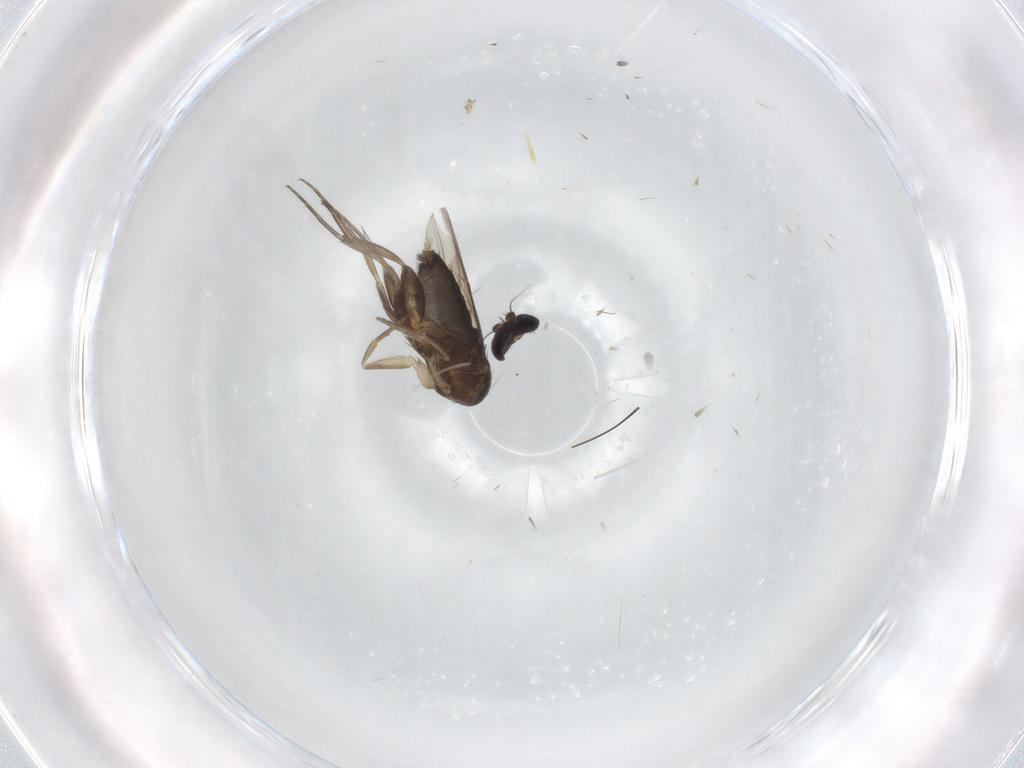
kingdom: Animalia
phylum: Arthropoda
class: Insecta
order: Diptera
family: Phoridae
